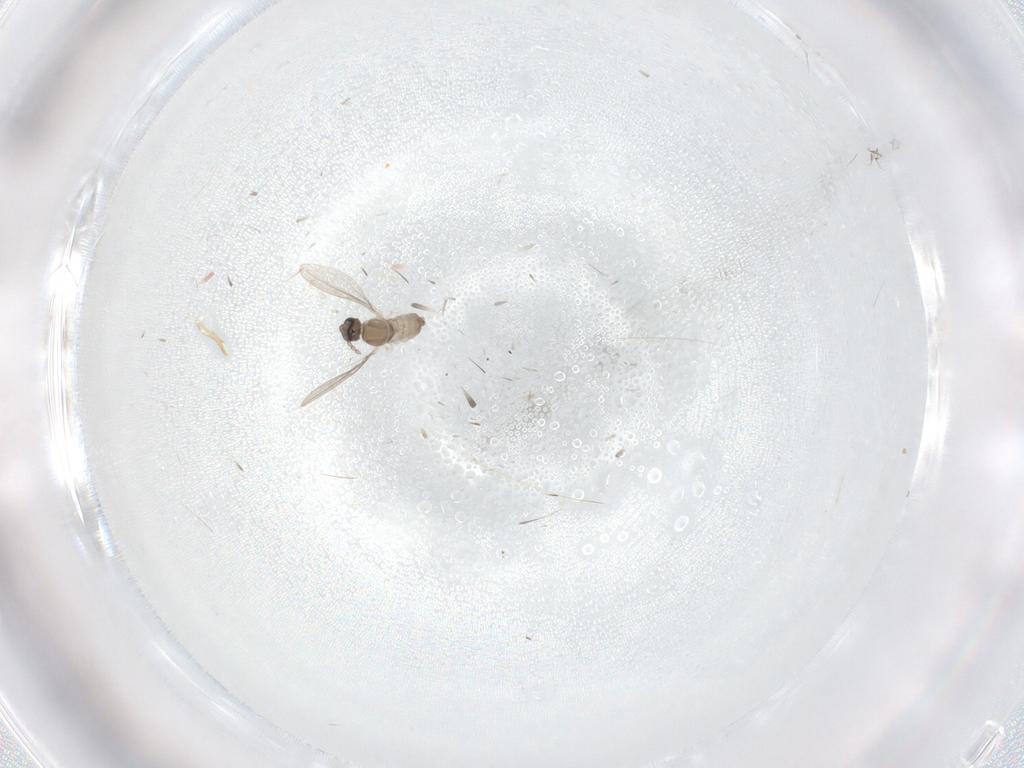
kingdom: Animalia
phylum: Arthropoda
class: Insecta
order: Diptera
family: Cecidomyiidae
